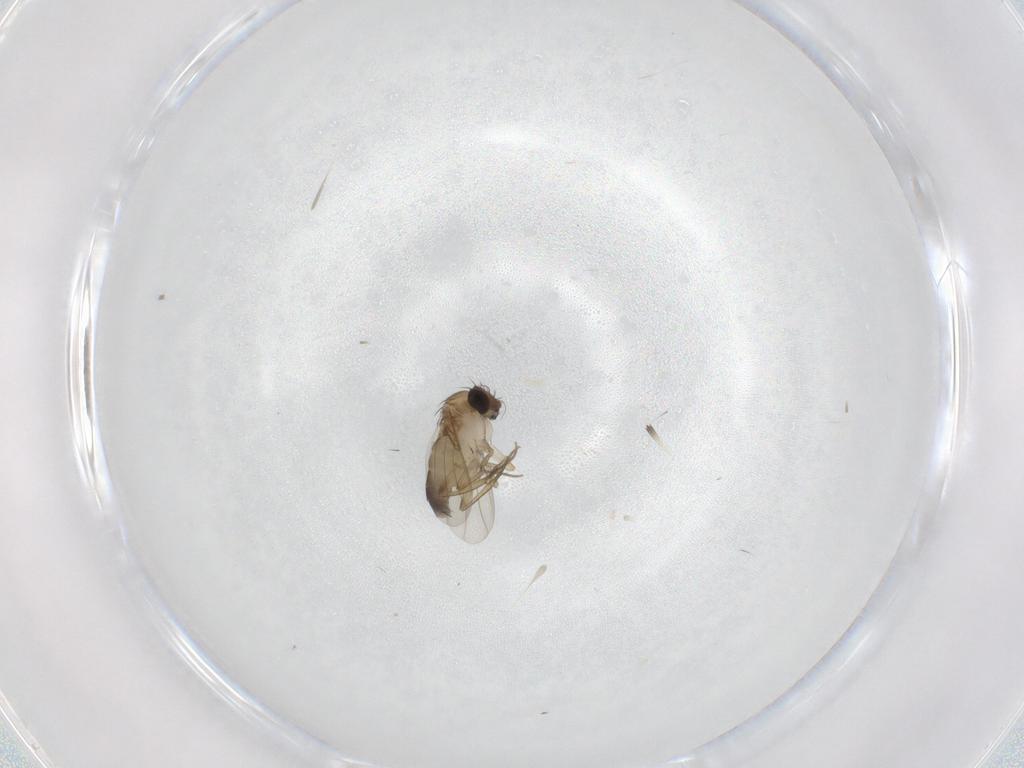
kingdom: Animalia
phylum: Arthropoda
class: Insecta
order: Diptera
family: Phoridae
